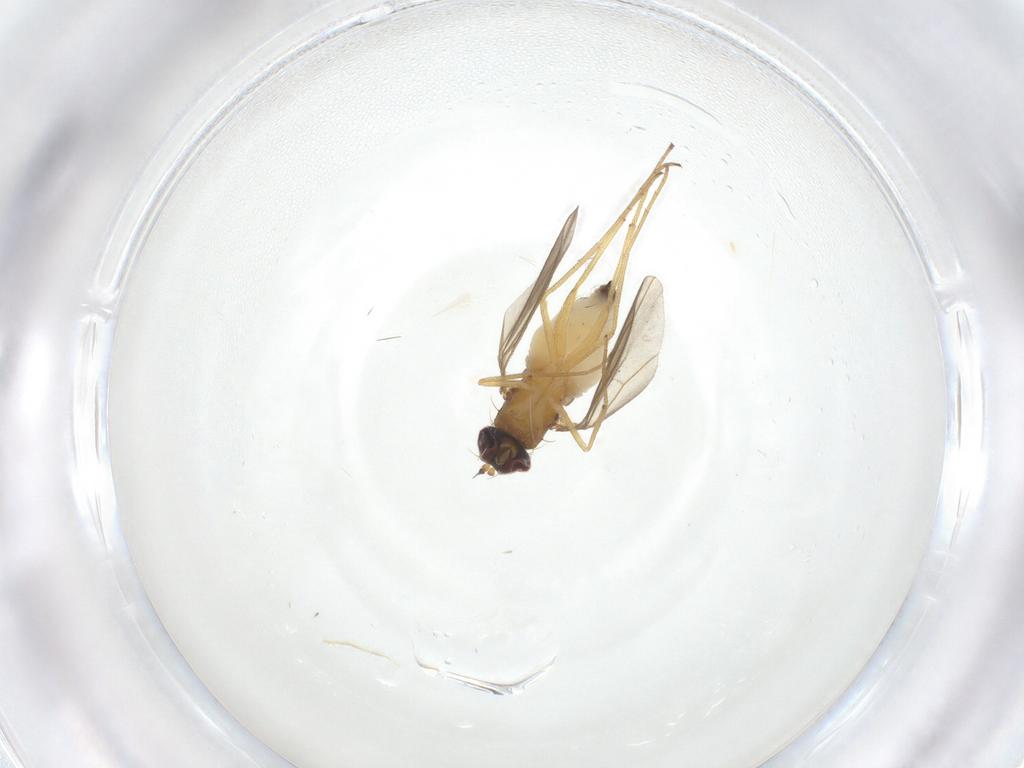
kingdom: Animalia
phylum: Arthropoda
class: Insecta
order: Diptera
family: Dolichopodidae
